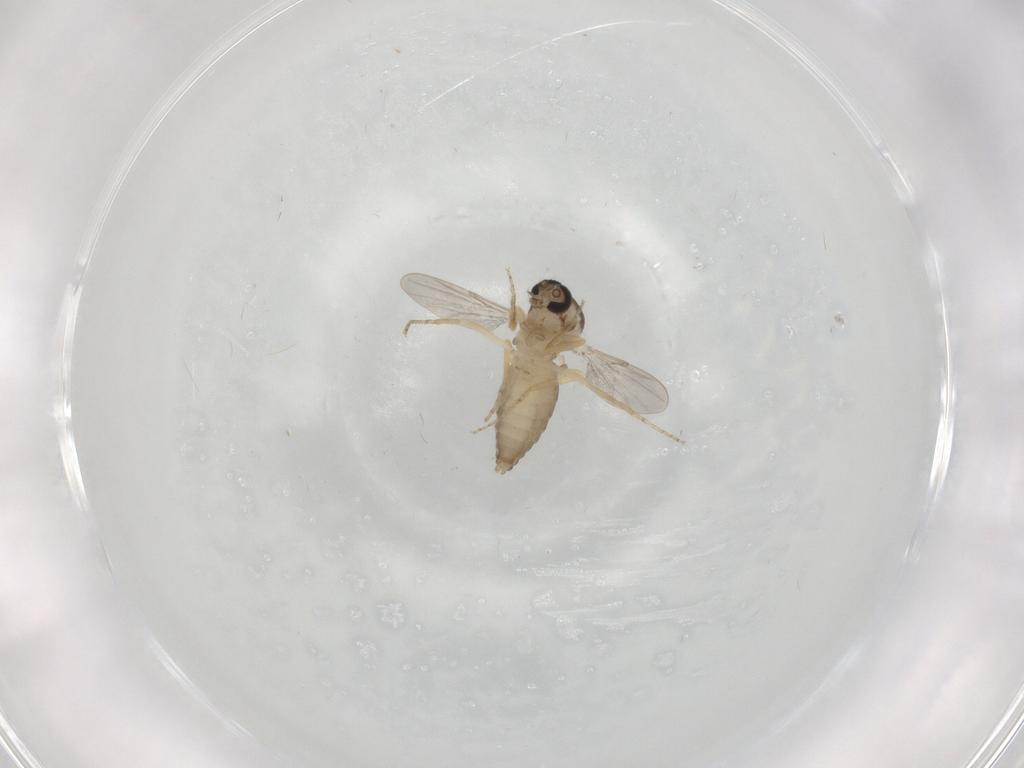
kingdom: Animalia
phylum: Arthropoda
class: Insecta
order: Diptera
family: Ceratopogonidae
